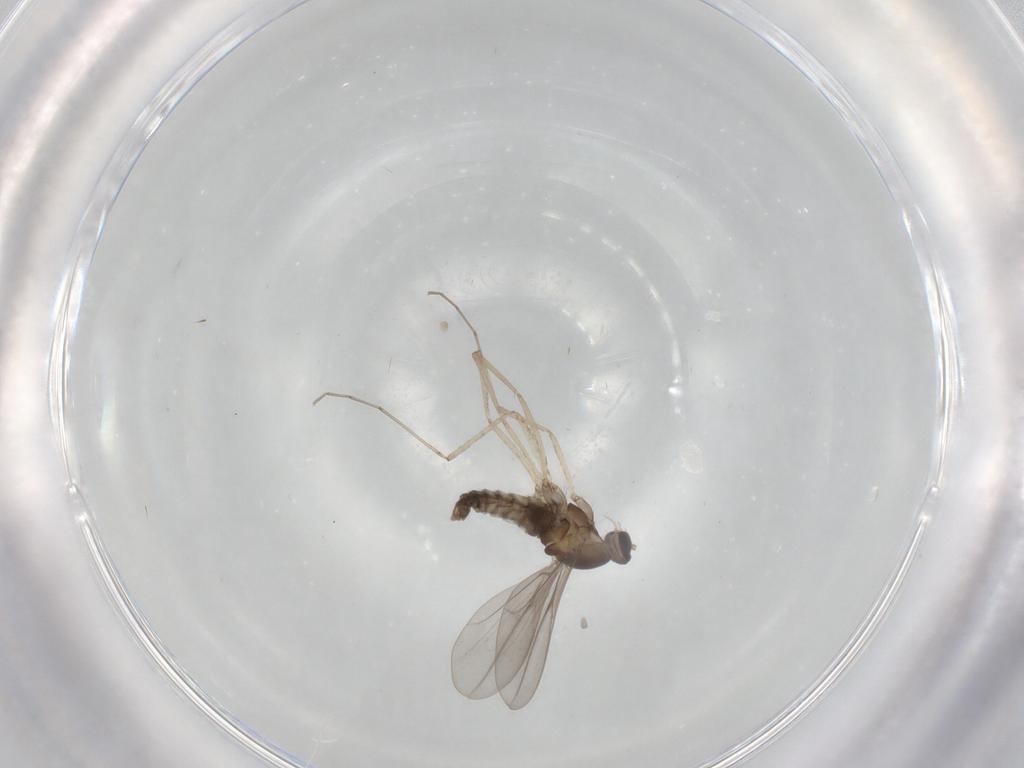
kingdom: Animalia
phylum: Arthropoda
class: Insecta
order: Diptera
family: Cecidomyiidae
